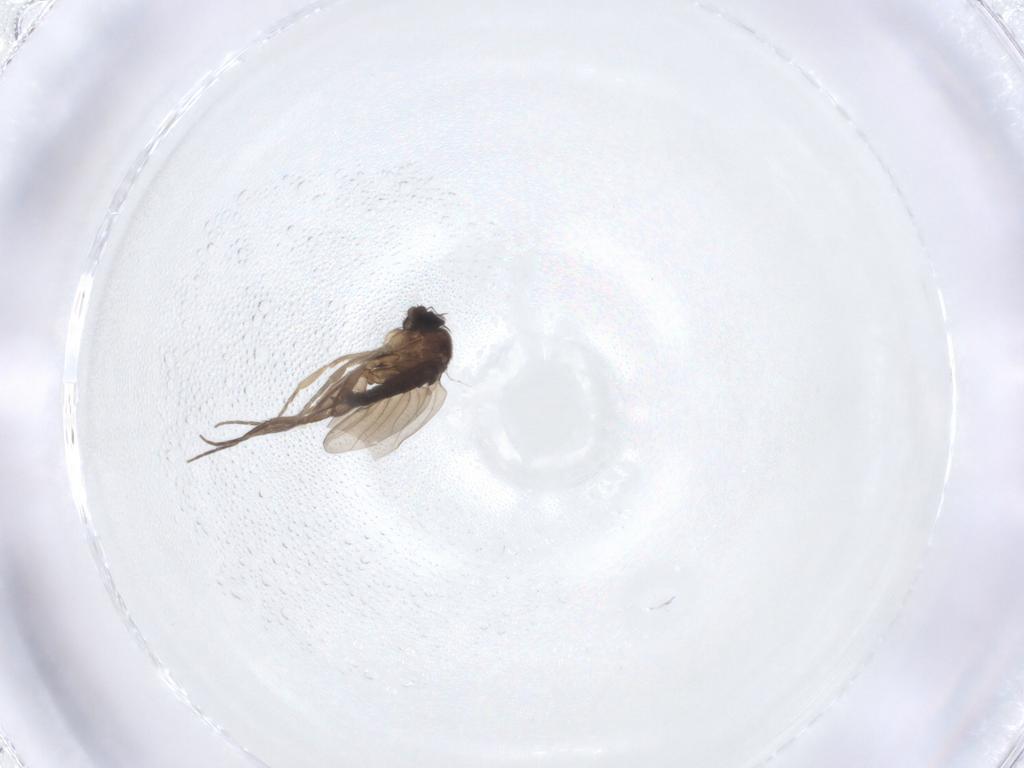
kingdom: Animalia
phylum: Arthropoda
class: Insecta
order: Diptera
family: Phoridae
